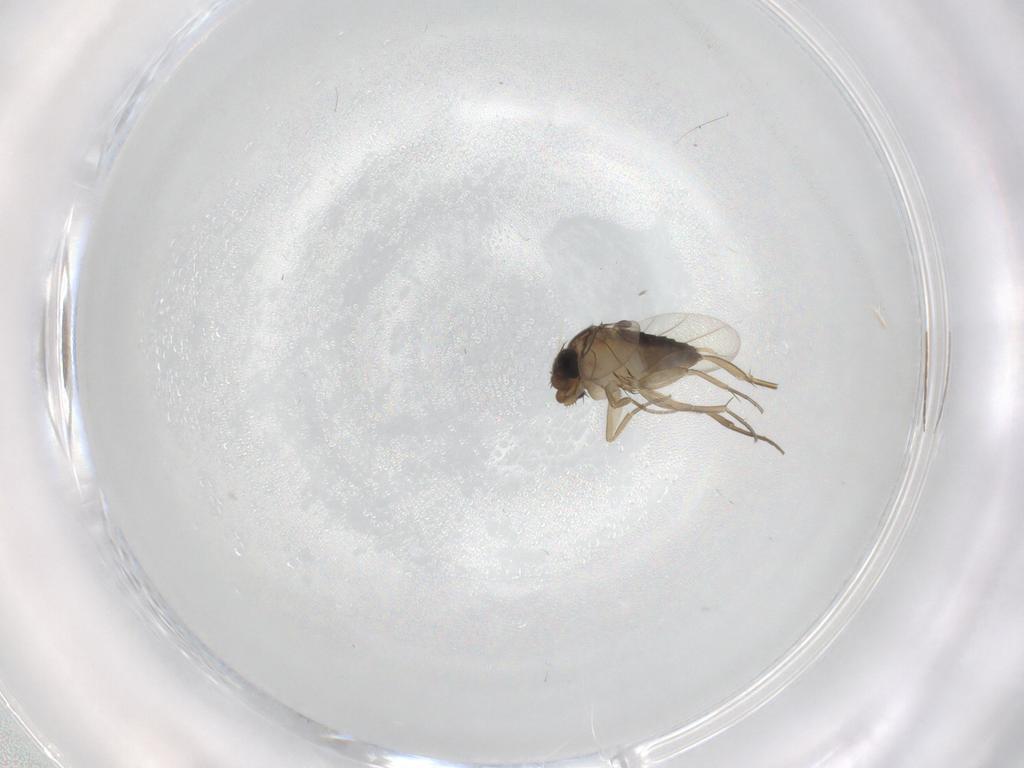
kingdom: Animalia
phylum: Arthropoda
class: Insecta
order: Diptera
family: Phoridae
